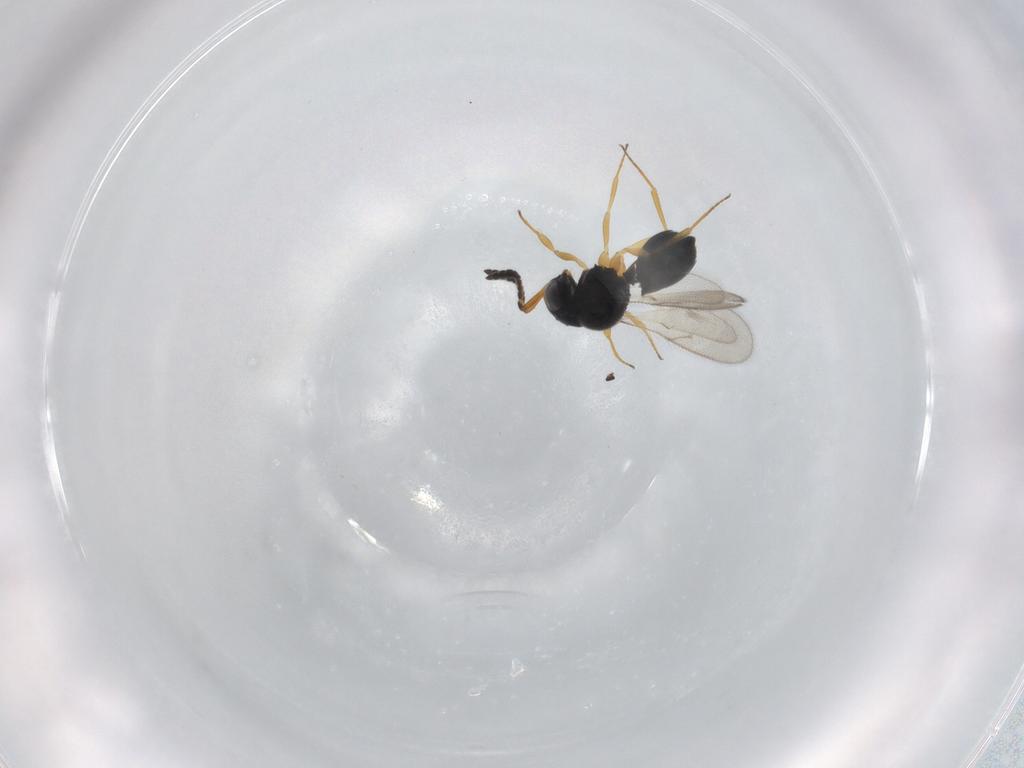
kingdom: Animalia
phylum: Arthropoda
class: Insecta
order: Hymenoptera
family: Scelionidae
